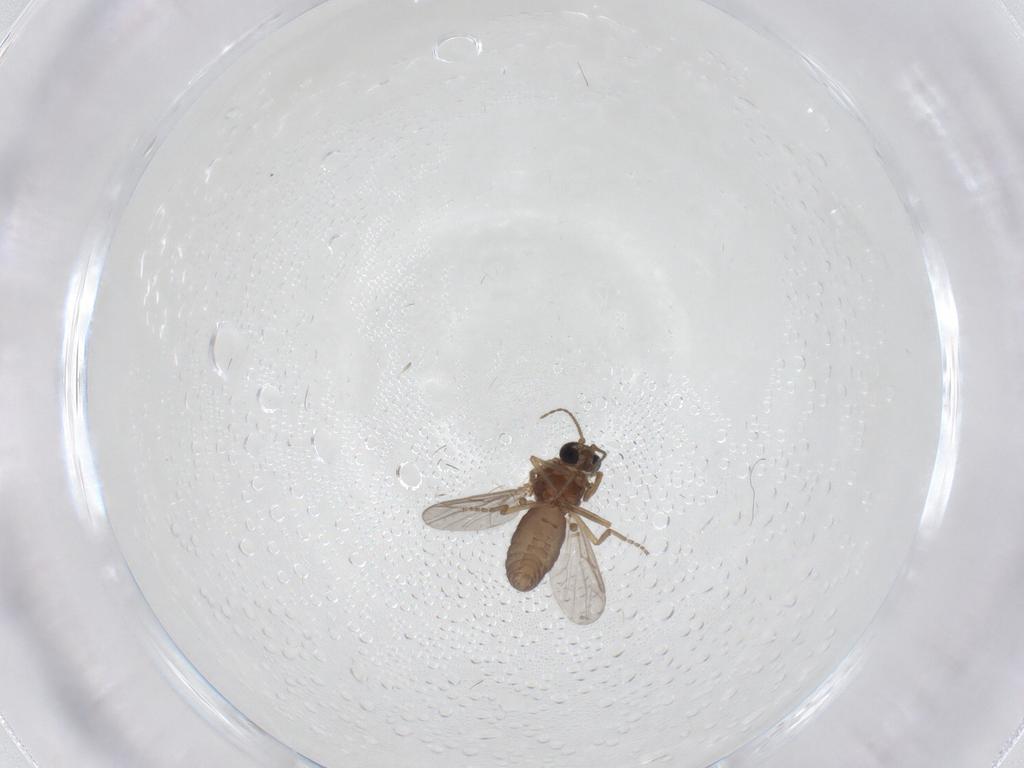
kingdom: Animalia
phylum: Arthropoda
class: Insecta
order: Diptera
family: Ceratopogonidae
